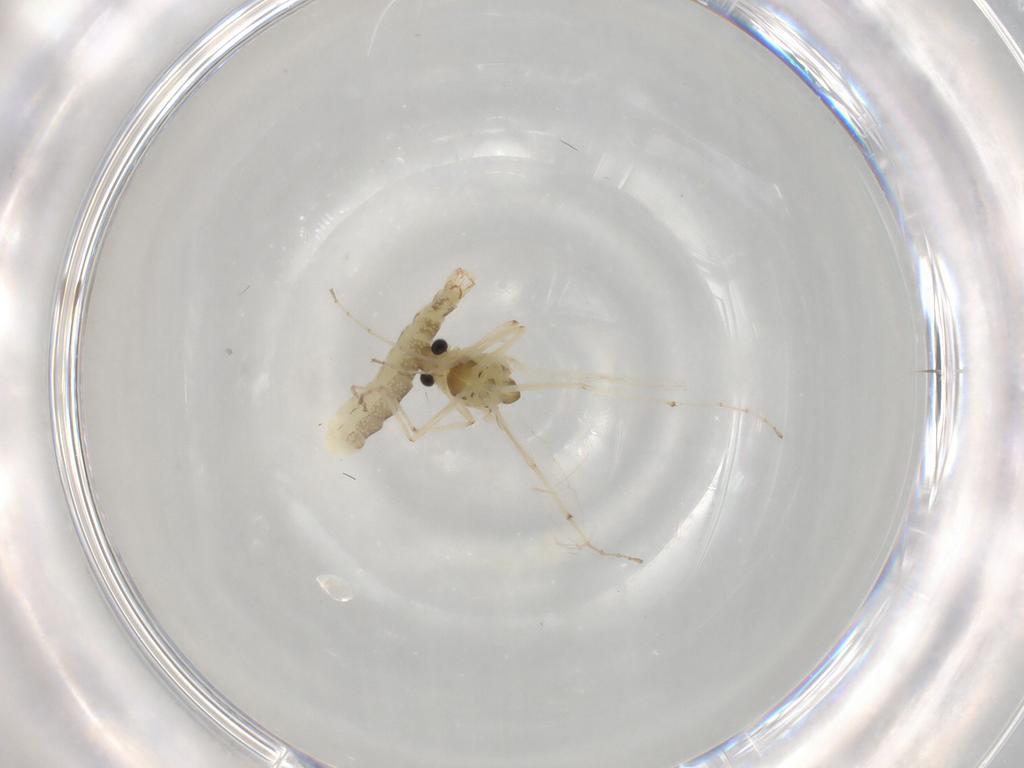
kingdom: Animalia
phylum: Arthropoda
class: Insecta
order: Diptera
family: Chironomidae
